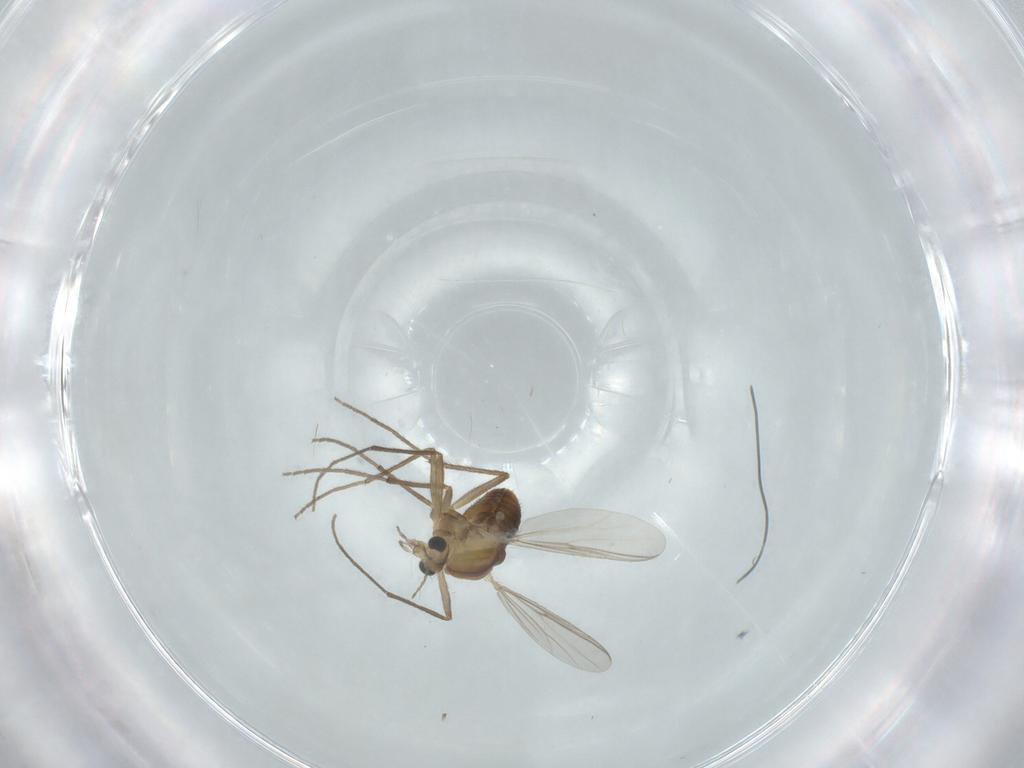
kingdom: Animalia
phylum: Arthropoda
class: Insecta
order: Diptera
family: Chironomidae
